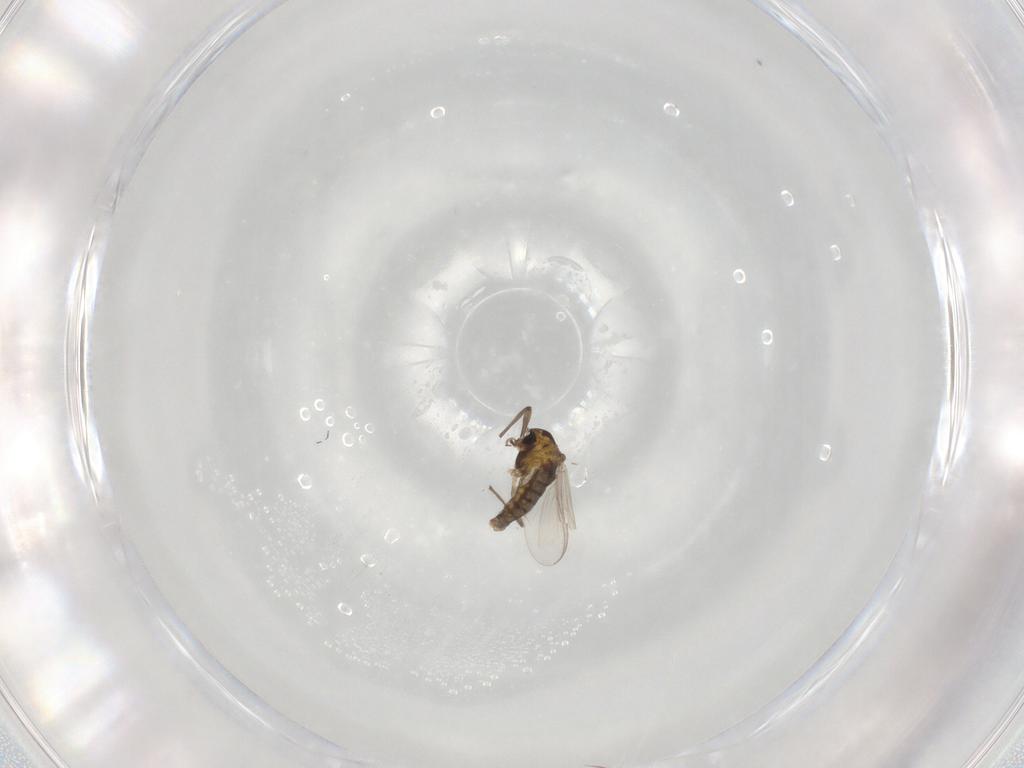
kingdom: Animalia
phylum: Arthropoda
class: Insecta
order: Diptera
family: Chironomidae
